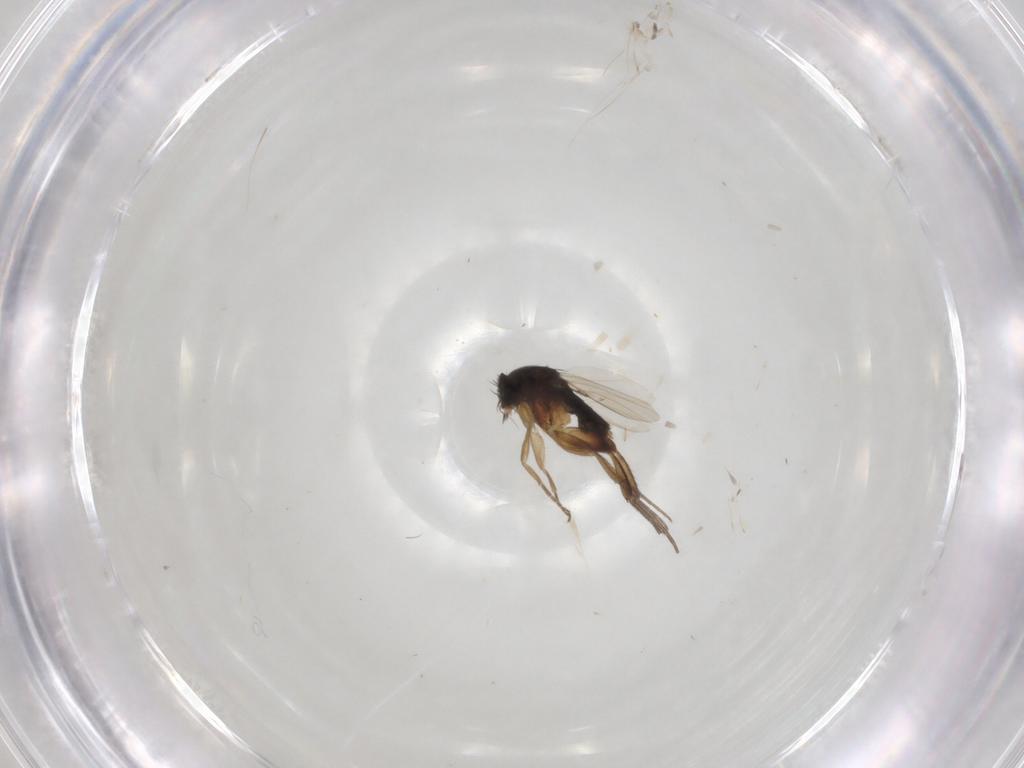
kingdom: Animalia
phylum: Arthropoda
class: Insecta
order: Diptera
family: Phoridae
